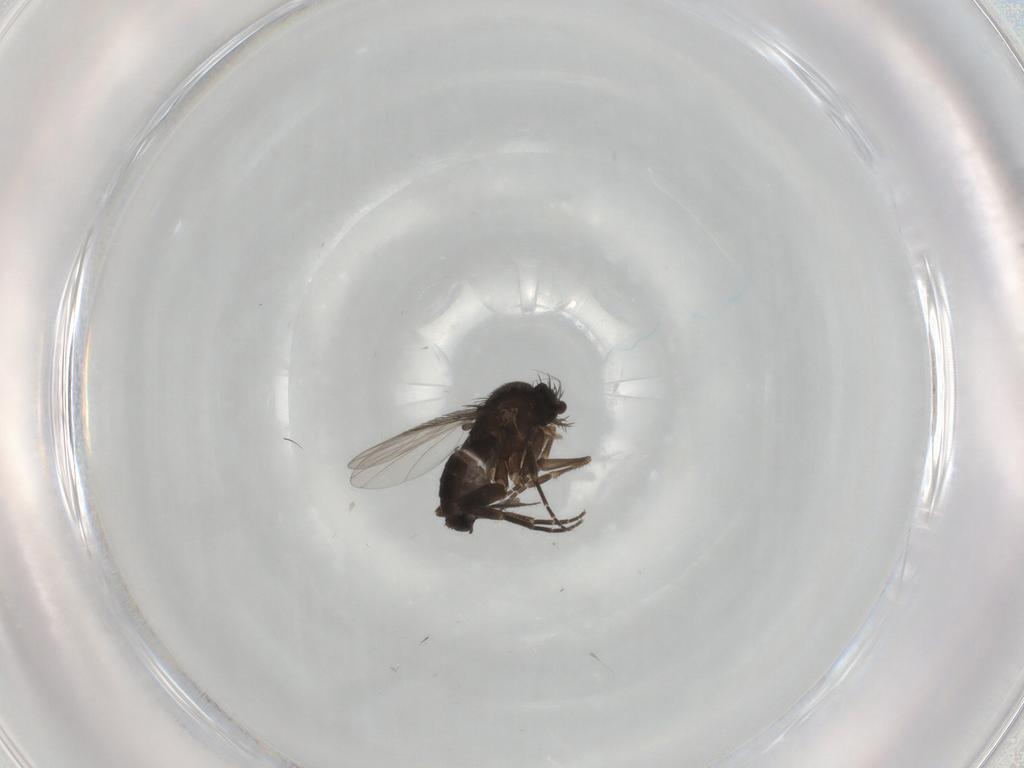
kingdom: Animalia
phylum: Arthropoda
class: Insecta
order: Diptera
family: Phoridae
